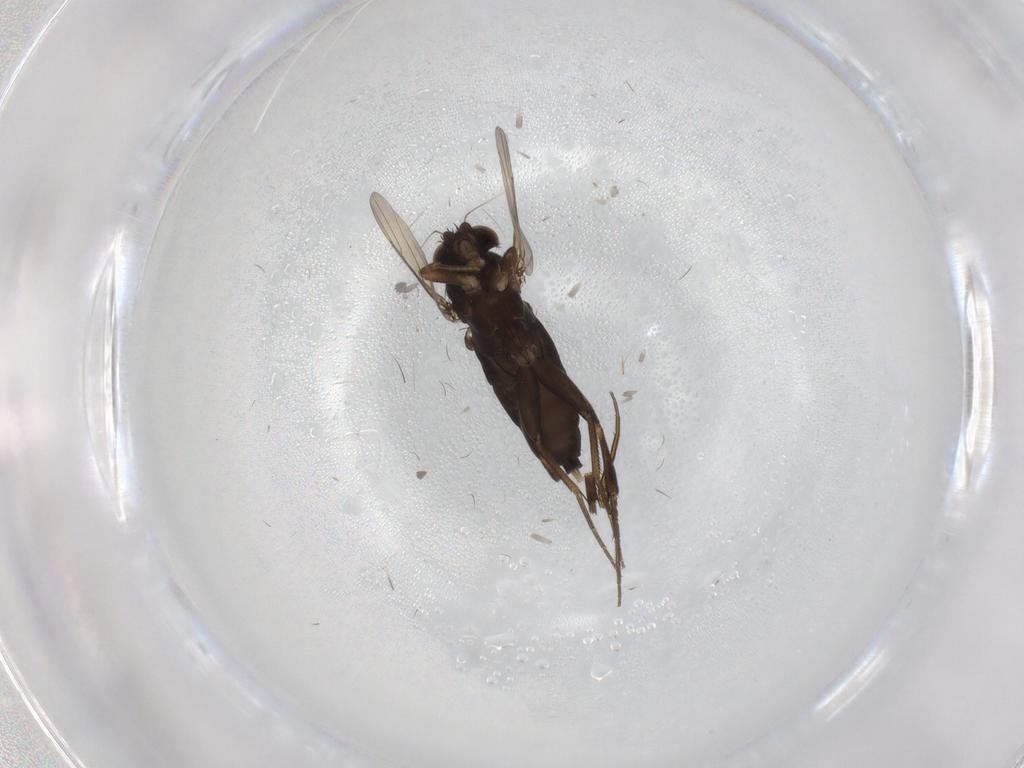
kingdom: Animalia
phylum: Arthropoda
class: Insecta
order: Diptera
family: Phoridae
